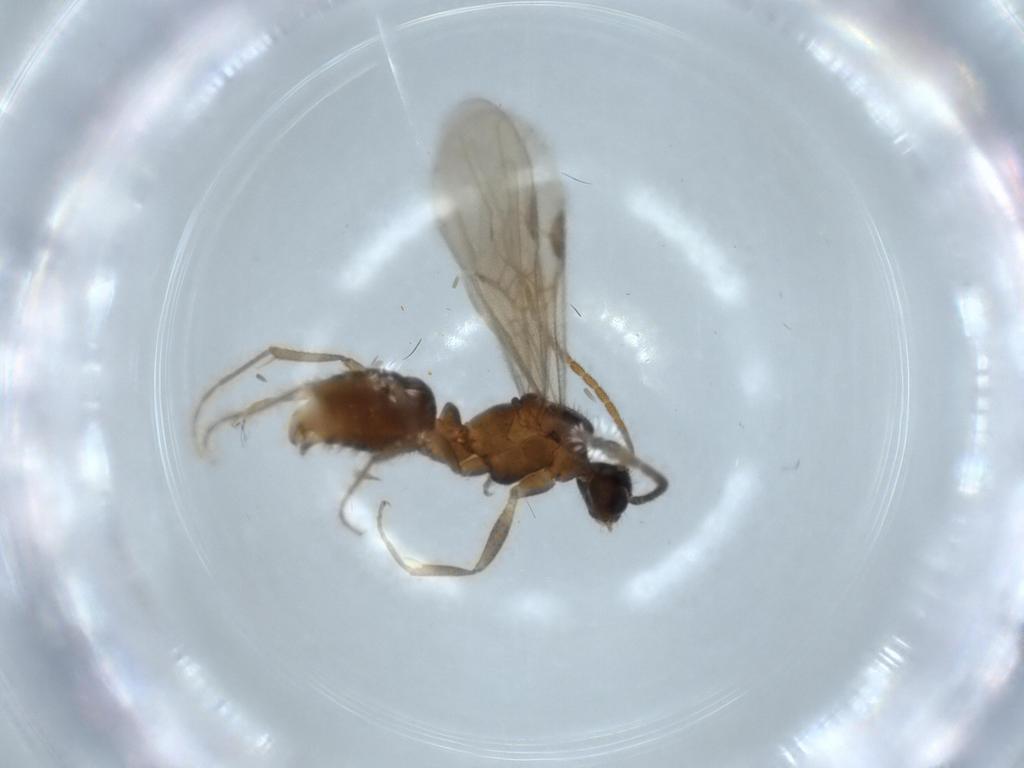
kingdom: Animalia
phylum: Arthropoda
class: Insecta
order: Hymenoptera
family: Formicidae
